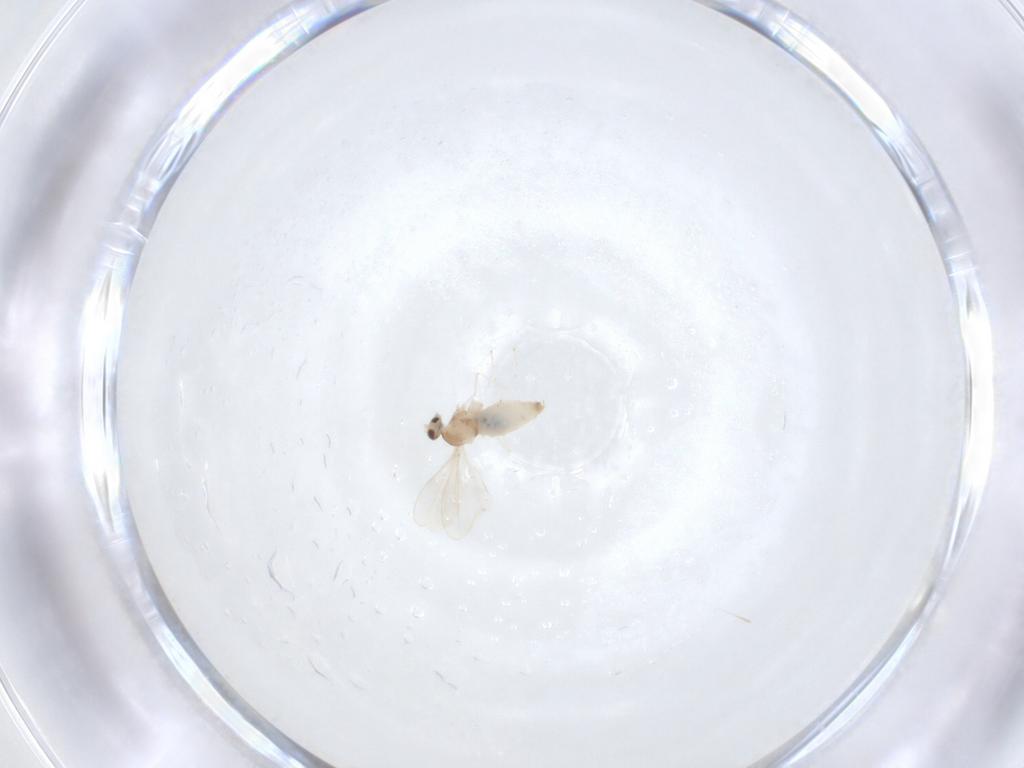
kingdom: Animalia
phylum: Arthropoda
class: Insecta
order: Diptera
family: Cecidomyiidae
